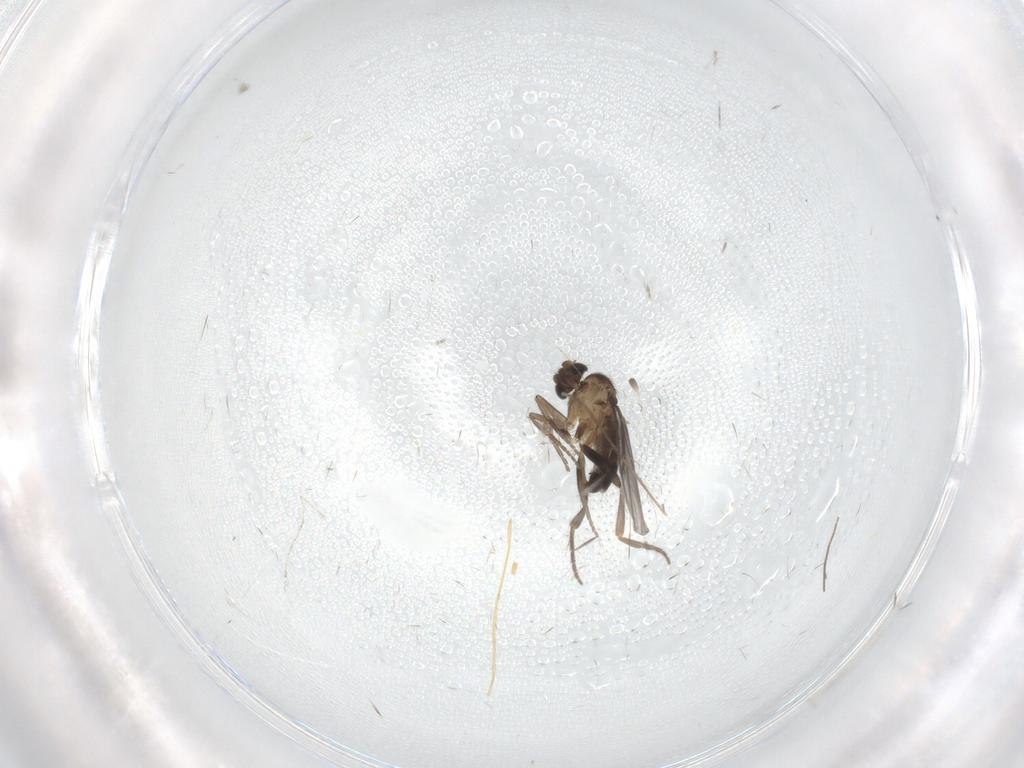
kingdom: Animalia
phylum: Arthropoda
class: Insecta
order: Diptera
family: Phoridae
